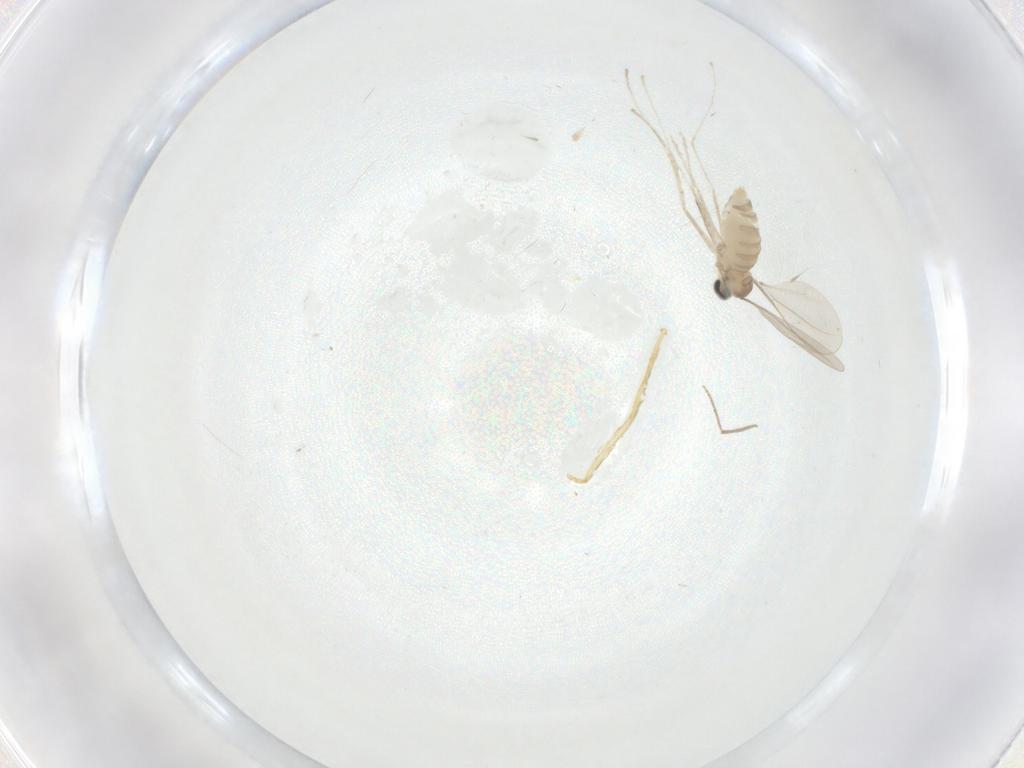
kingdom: Animalia
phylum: Arthropoda
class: Insecta
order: Diptera
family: Cecidomyiidae
